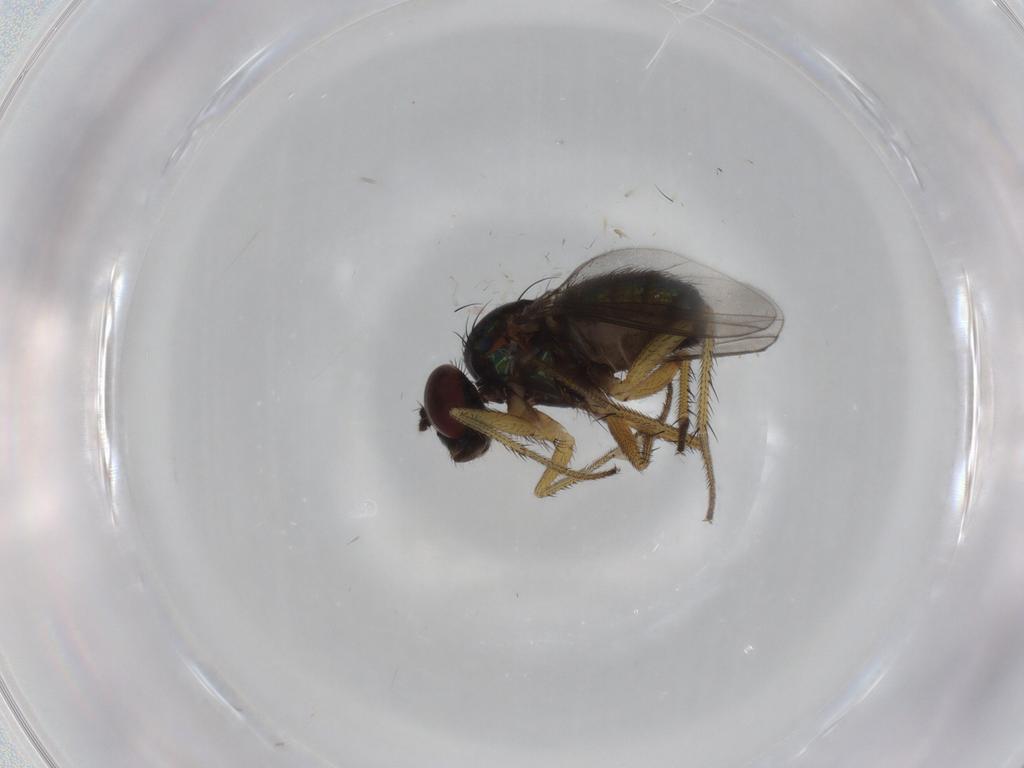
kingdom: Animalia
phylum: Arthropoda
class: Insecta
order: Diptera
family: Dolichopodidae
